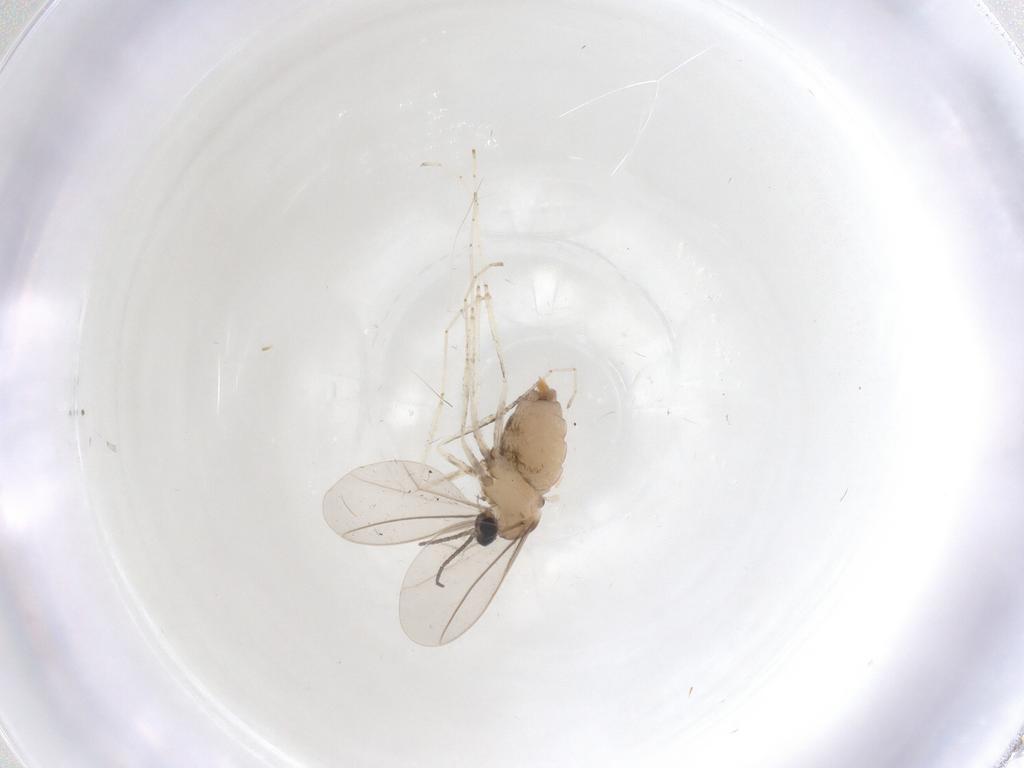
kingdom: Animalia
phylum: Arthropoda
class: Insecta
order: Diptera
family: Cecidomyiidae
